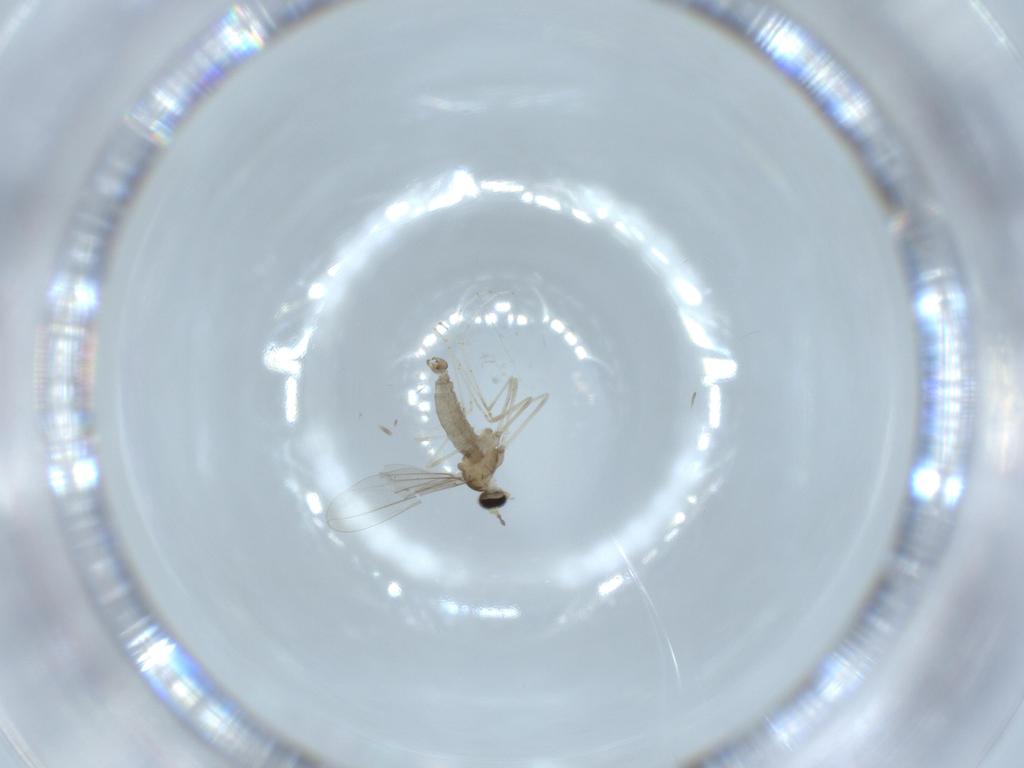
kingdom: Animalia
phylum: Arthropoda
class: Insecta
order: Diptera
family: Cecidomyiidae
